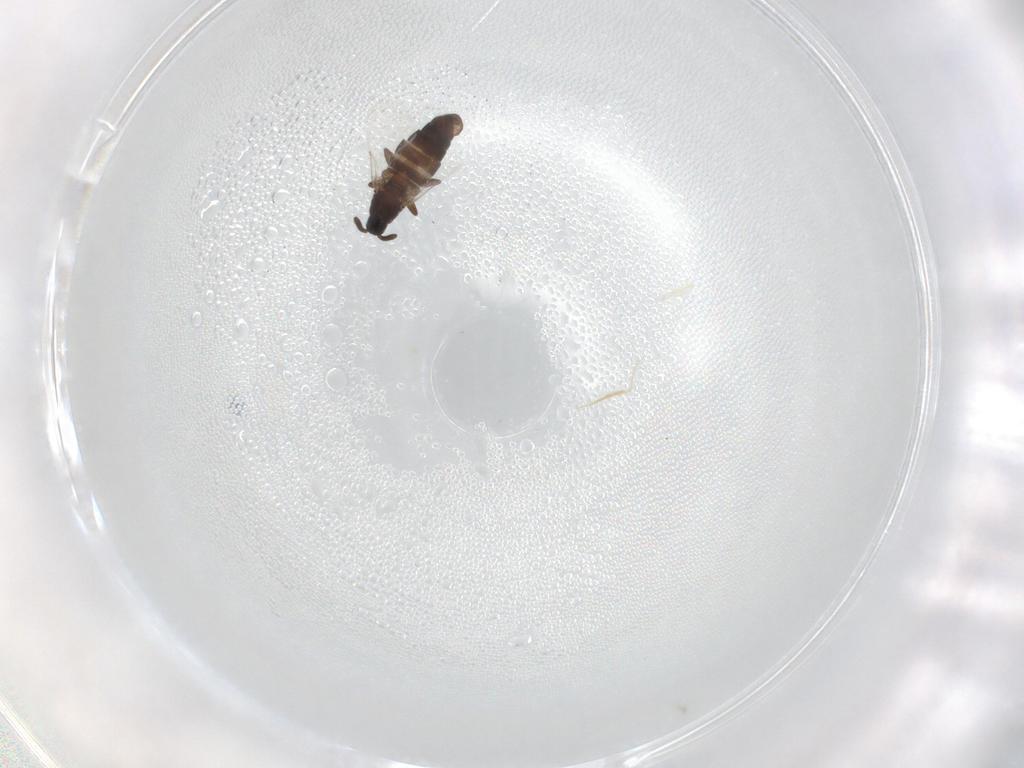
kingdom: Animalia
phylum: Arthropoda
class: Insecta
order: Diptera
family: Scatopsidae
